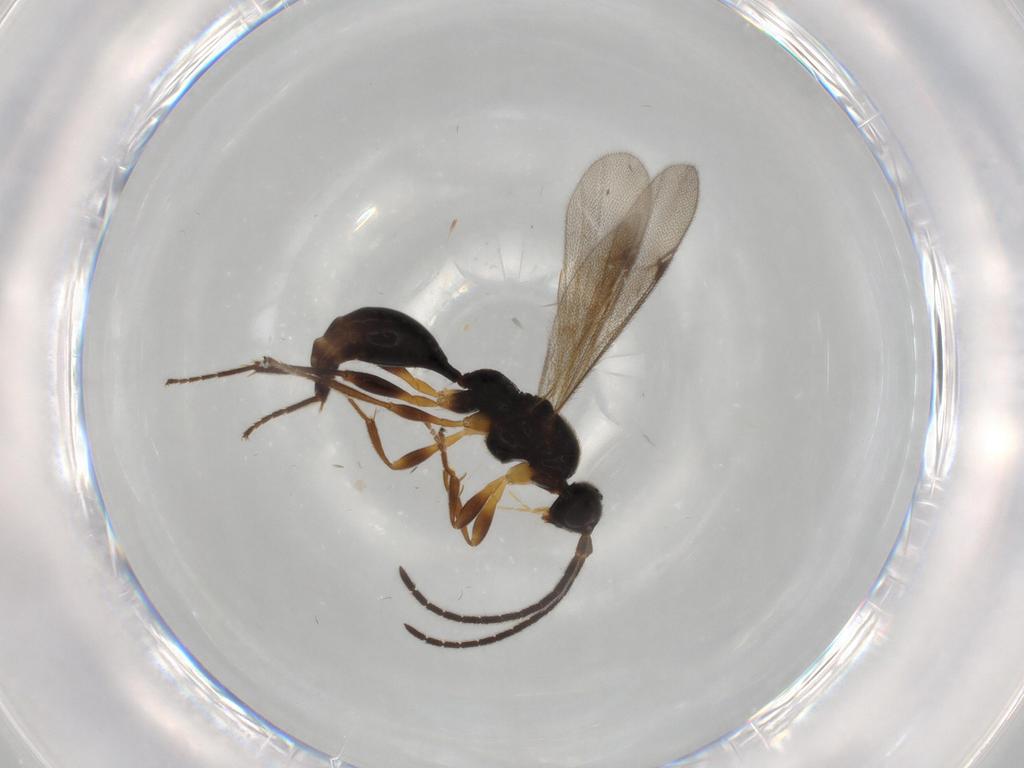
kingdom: Animalia
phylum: Arthropoda
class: Insecta
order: Hymenoptera
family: Proctotrupidae
